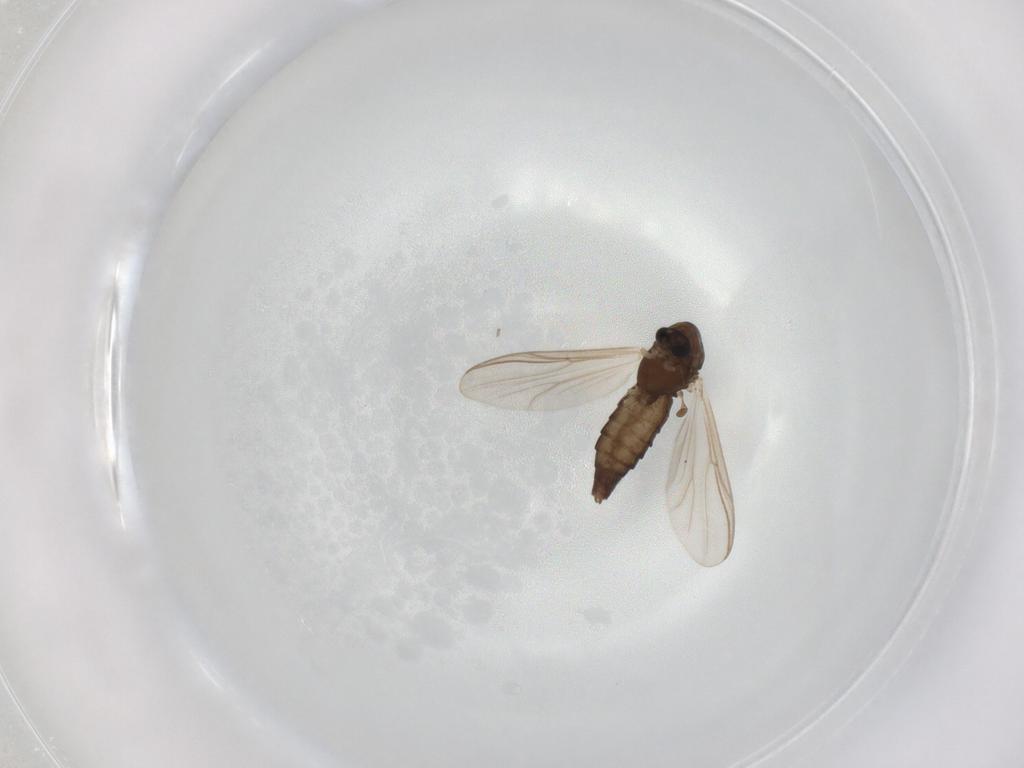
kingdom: Animalia
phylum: Arthropoda
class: Insecta
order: Diptera
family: Chironomidae
